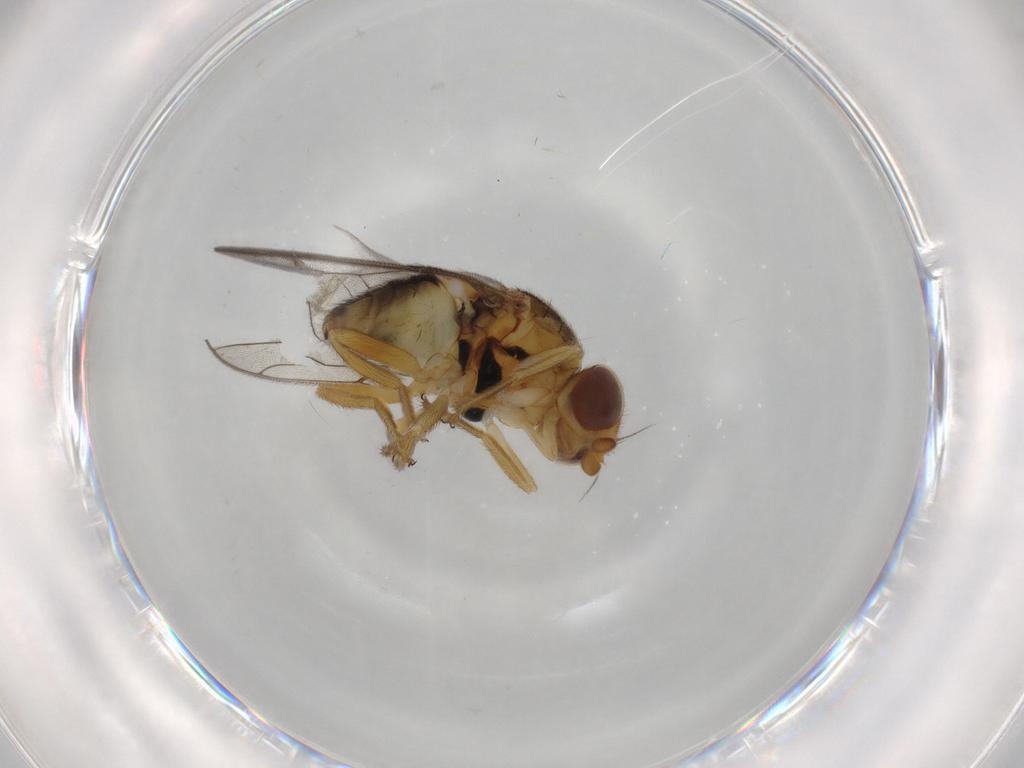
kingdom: Animalia
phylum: Arthropoda
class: Insecta
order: Diptera
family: Chloropidae
